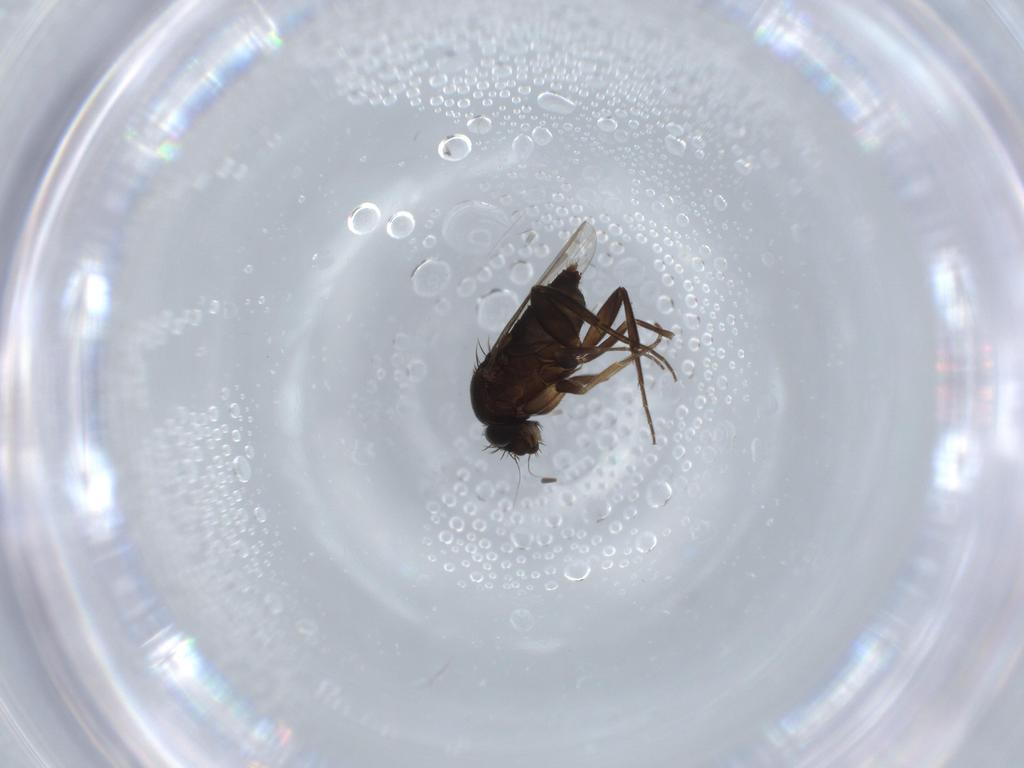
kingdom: Animalia
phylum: Arthropoda
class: Insecta
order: Diptera
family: Phoridae
